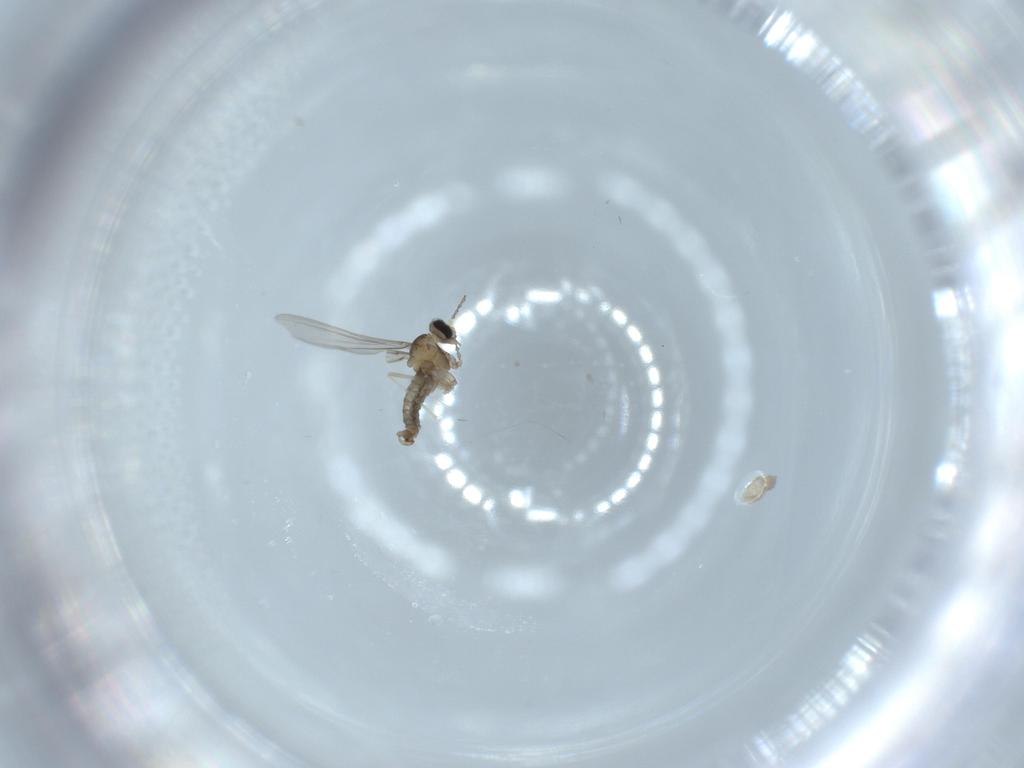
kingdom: Animalia
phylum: Arthropoda
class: Insecta
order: Diptera
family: Cecidomyiidae
